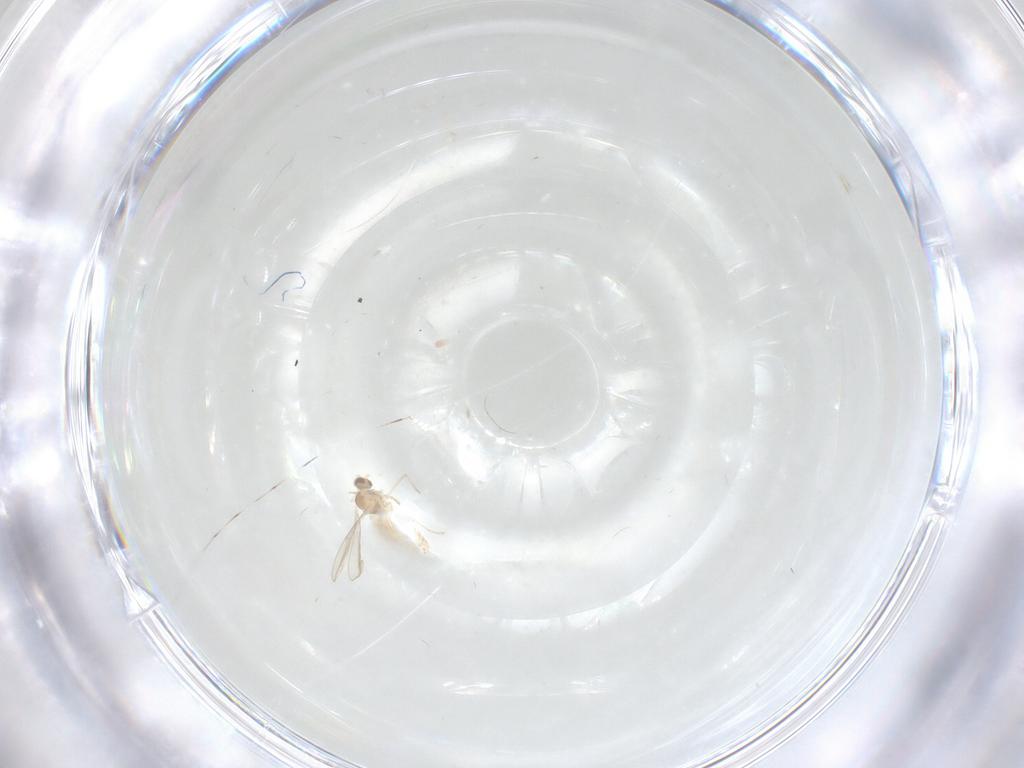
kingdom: Animalia
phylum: Arthropoda
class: Insecta
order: Diptera
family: Cecidomyiidae
